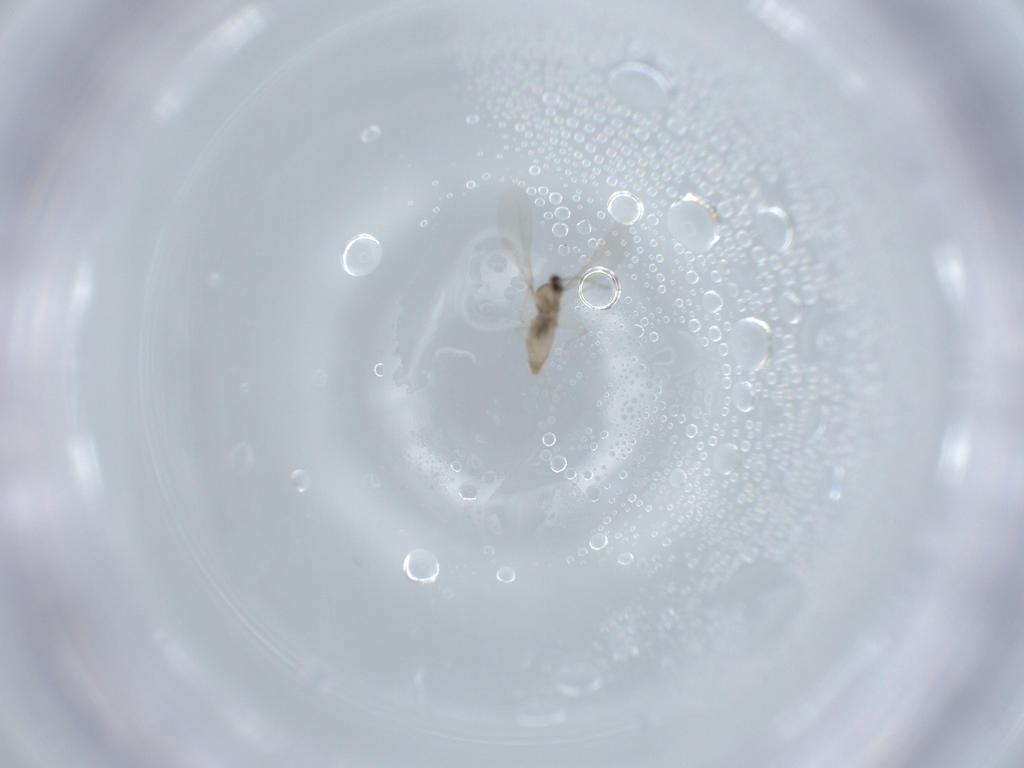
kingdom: Animalia
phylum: Arthropoda
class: Insecta
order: Diptera
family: Cecidomyiidae
